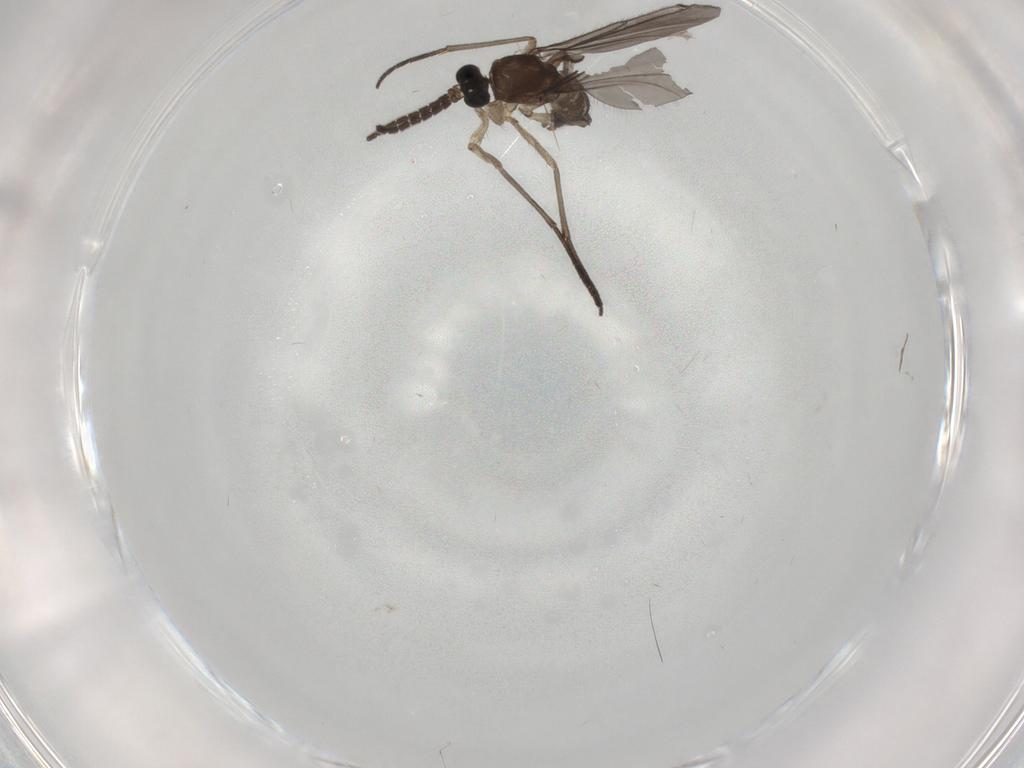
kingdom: Animalia
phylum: Arthropoda
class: Insecta
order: Diptera
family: Sciaridae
